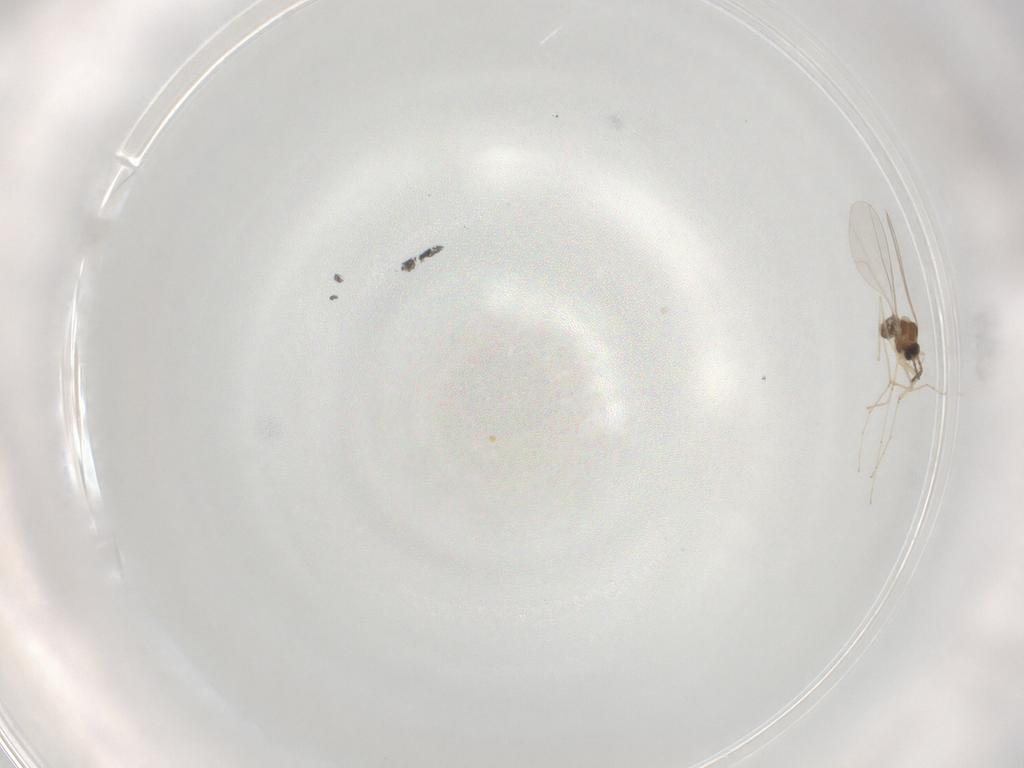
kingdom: Animalia
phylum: Arthropoda
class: Insecta
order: Diptera
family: Cecidomyiidae
